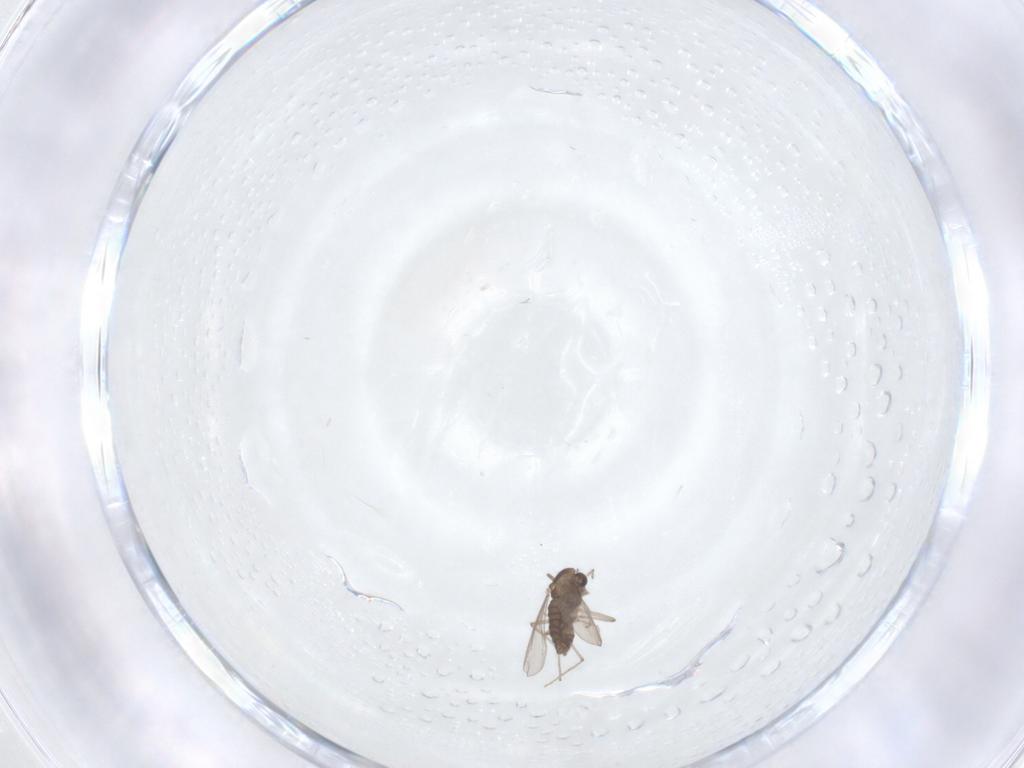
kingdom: Animalia
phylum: Arthropoda
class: Insecta
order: Diptera
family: Chironomidae
